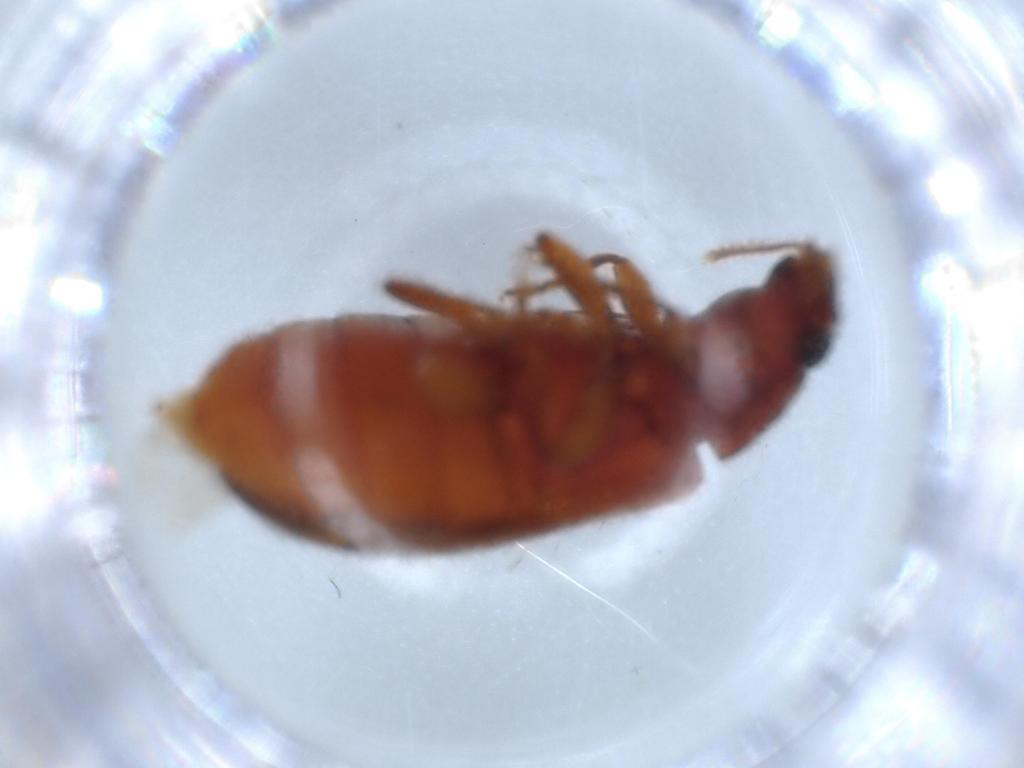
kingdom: Animalia
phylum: Arthropoda
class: Insecta
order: Coleoptera
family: Mycteridae
